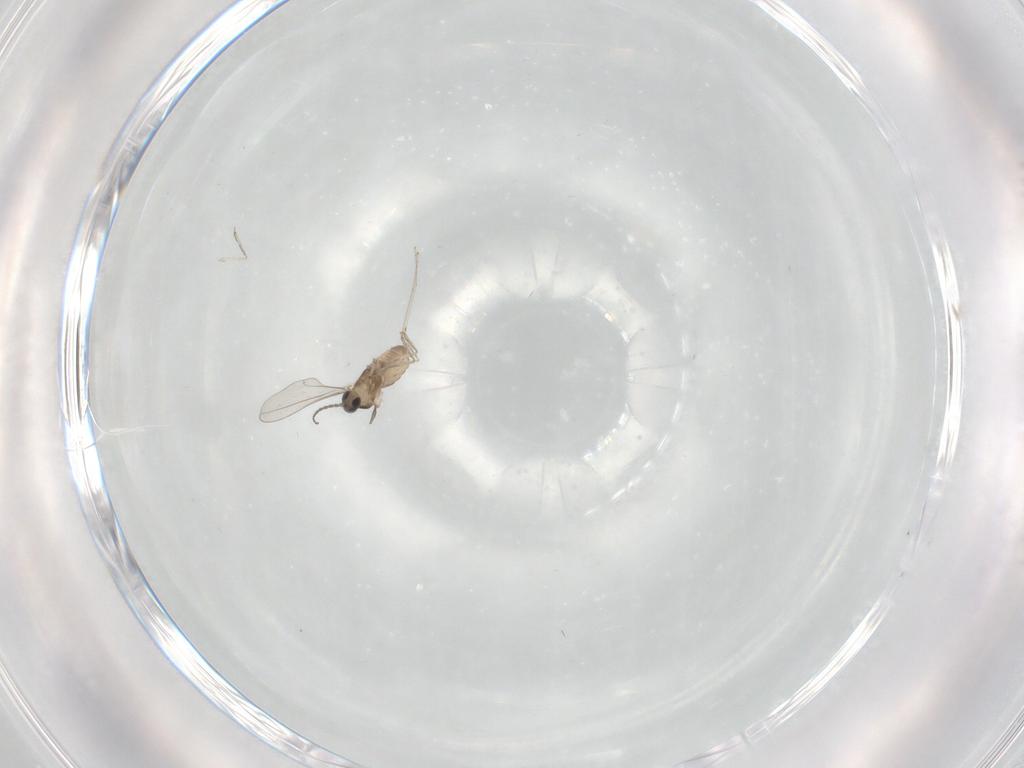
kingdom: Animalia
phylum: Arthropoda
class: Insecta
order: Diptera
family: Cecidomyiidae
